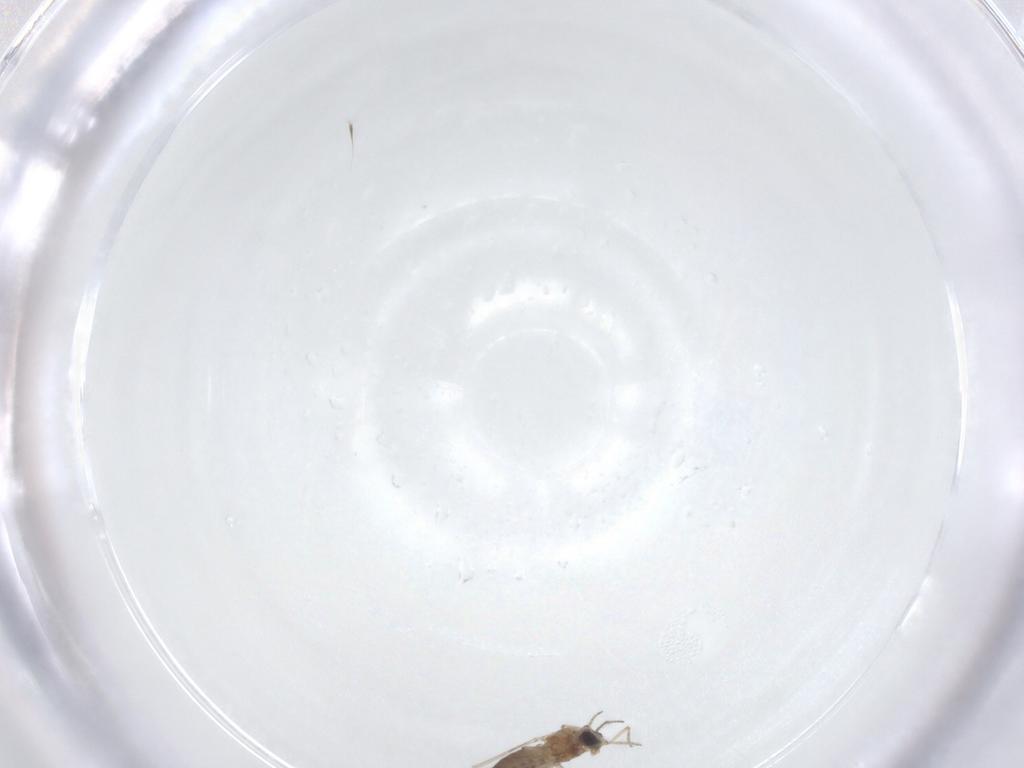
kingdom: Animalia
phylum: Arthropoda
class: Insecta
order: Diptera
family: Ceratopogonidae
